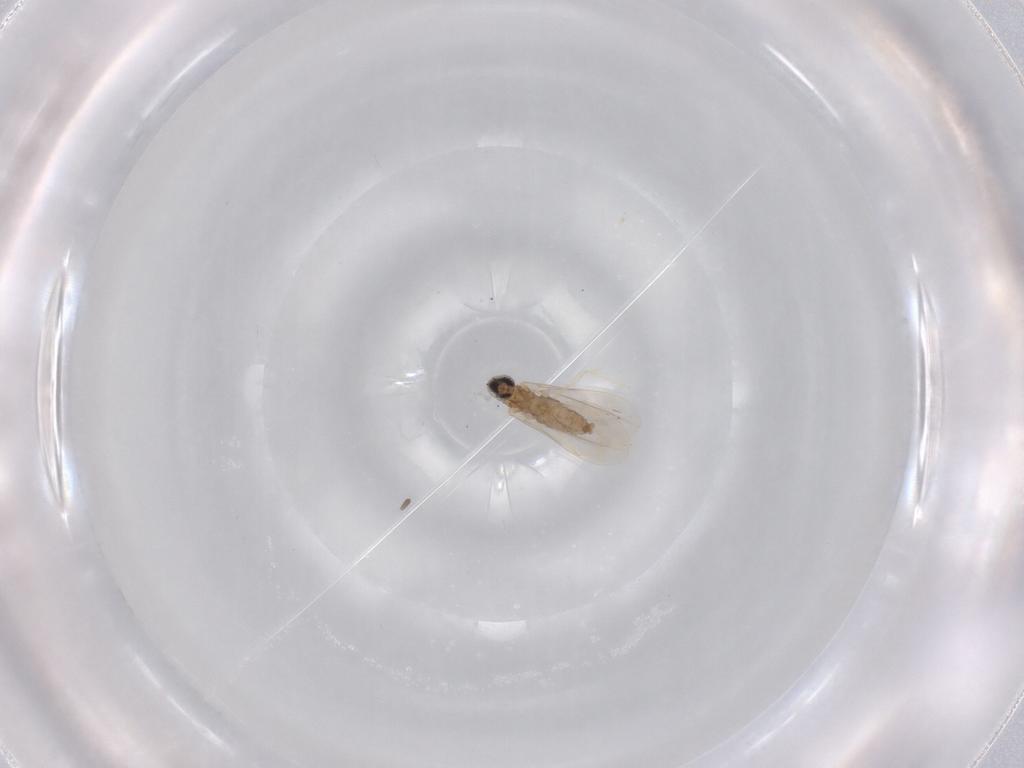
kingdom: Animalia
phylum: Arthropoda
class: Insecta
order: Diptera
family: Cecidomyiidae
